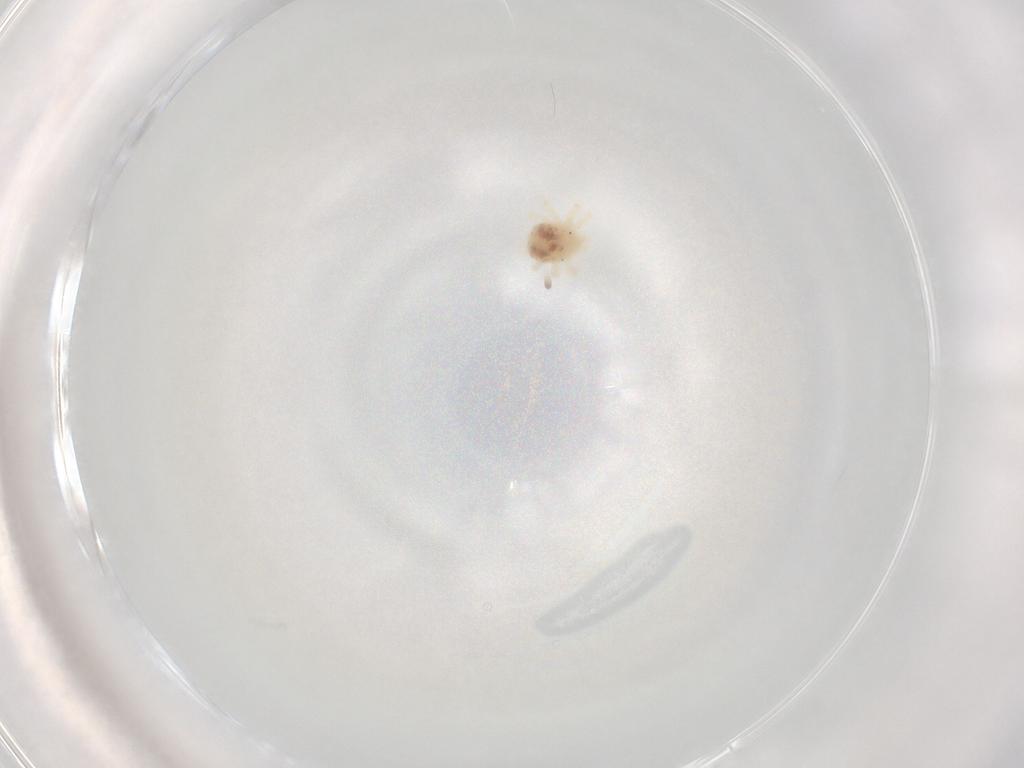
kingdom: Animalia
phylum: Arthropoda
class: Arachnida
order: Trombidiformes
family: Anystidae
